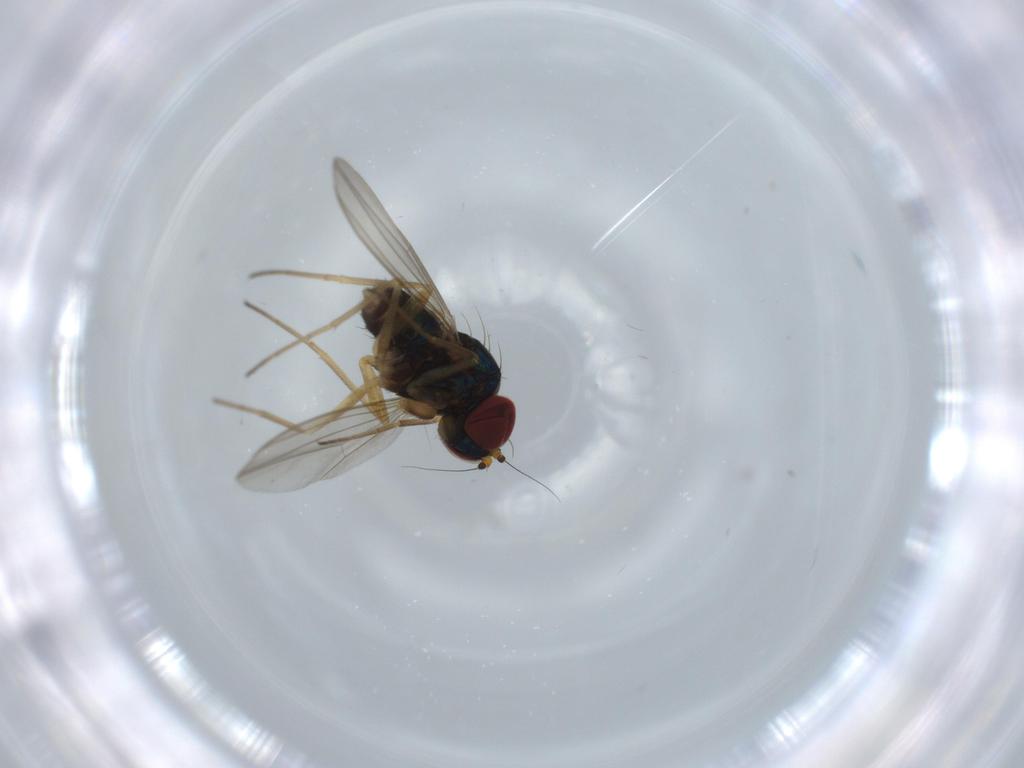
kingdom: Animalia
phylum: Arthropoda
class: Insecta
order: Diptera
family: Dolichopodidae
